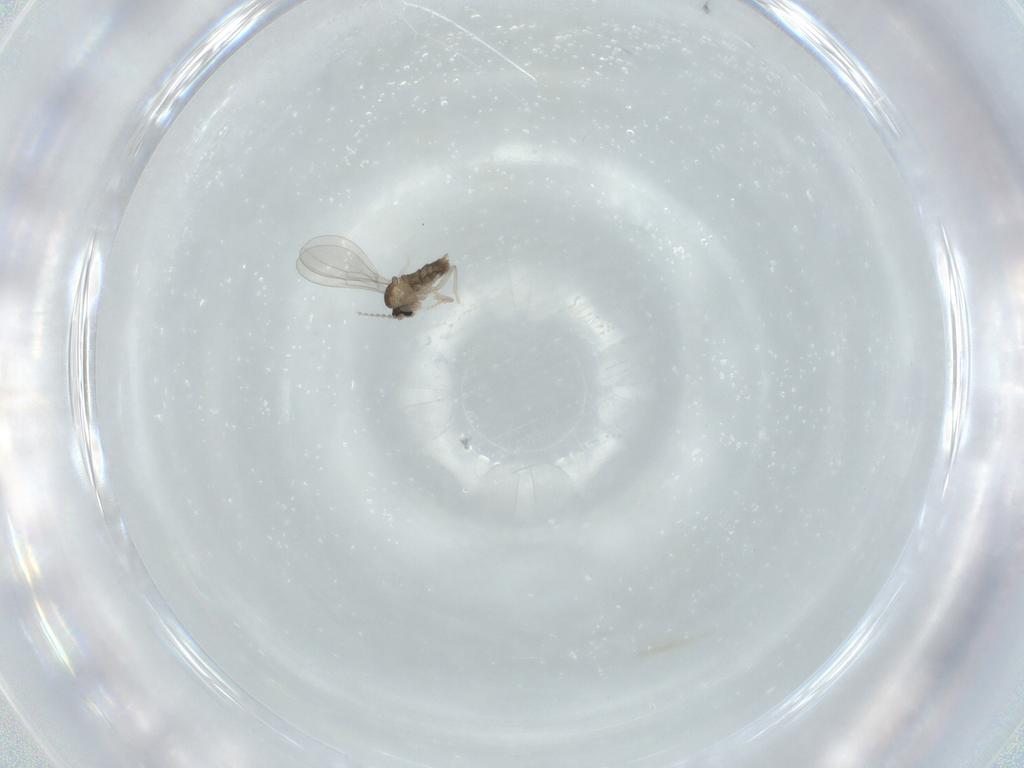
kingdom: Animalia
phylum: Arthropoda
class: Insecta
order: Diptera
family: Cecidomyiidae
